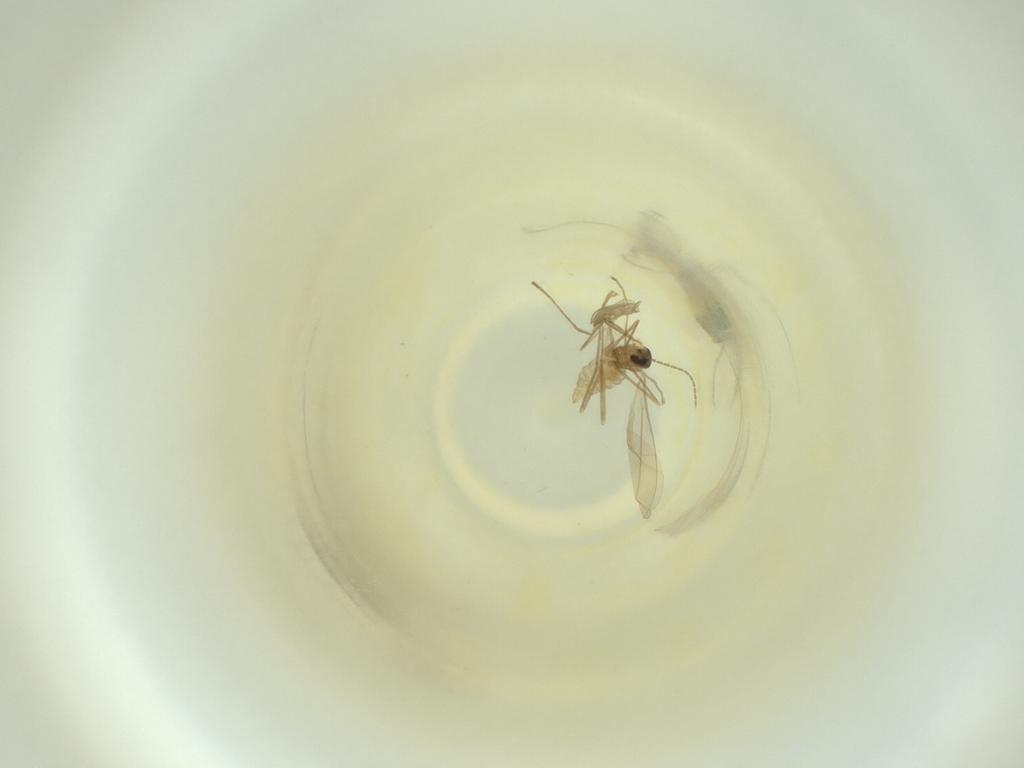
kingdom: Animalia
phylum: Arthropoda
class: Insecta
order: Diptera
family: Cecidomyiidae
